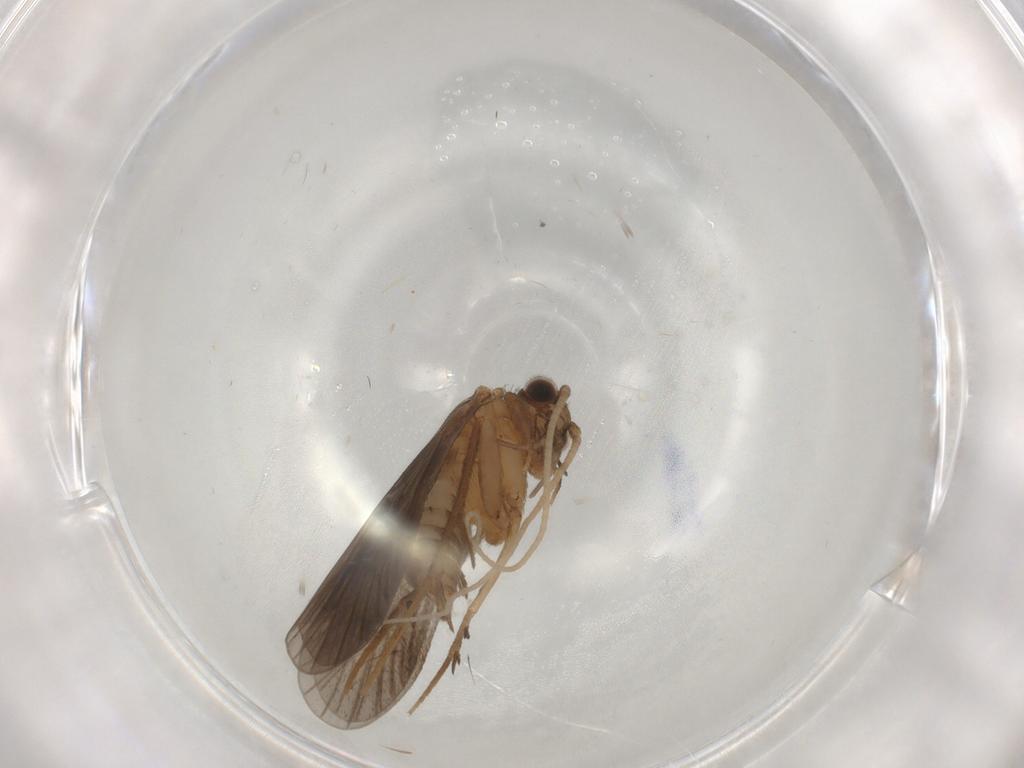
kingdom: Animalia
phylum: Arthropoda
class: Insecta
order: Trichoptera
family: Philopotamidae
